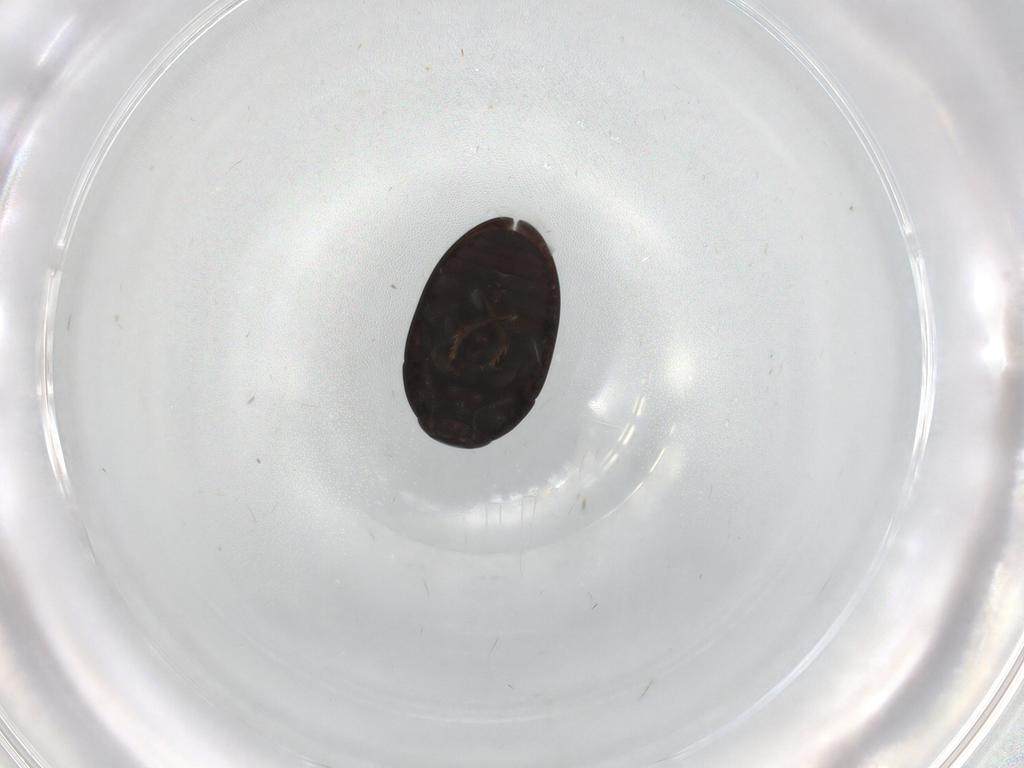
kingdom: Animalia
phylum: Arthropoda
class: Insecta
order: Coleoptera
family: Phalacridae
